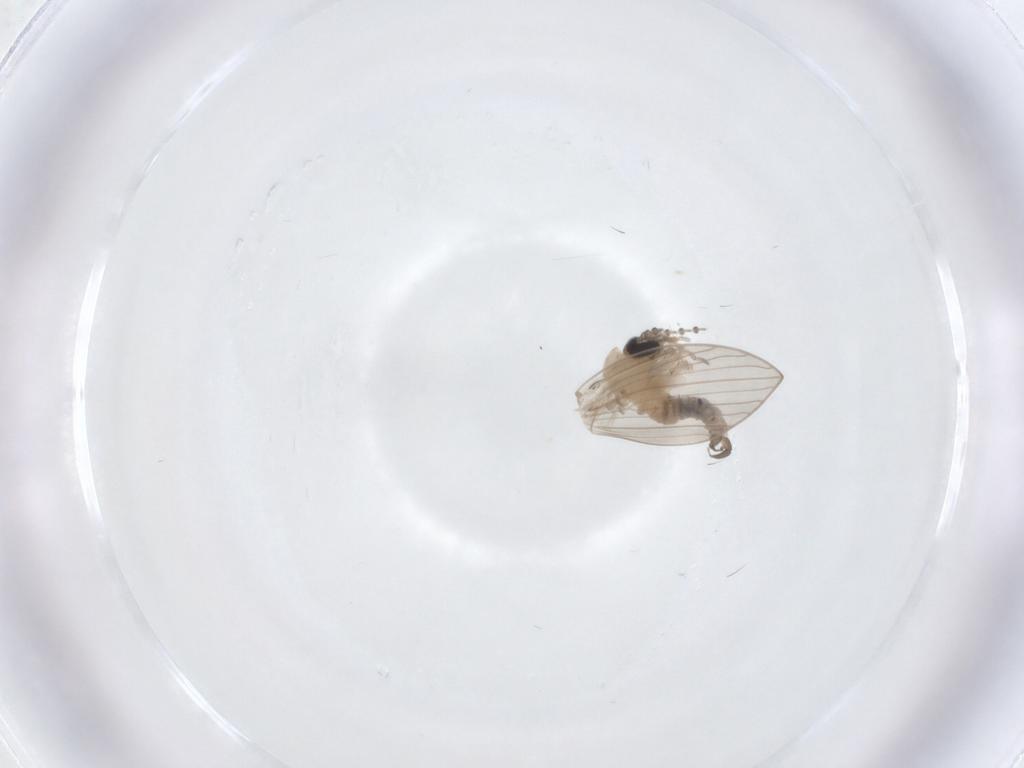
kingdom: Animalia
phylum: Arthropoda
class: Insecta
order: Diptera
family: Psychodidae
